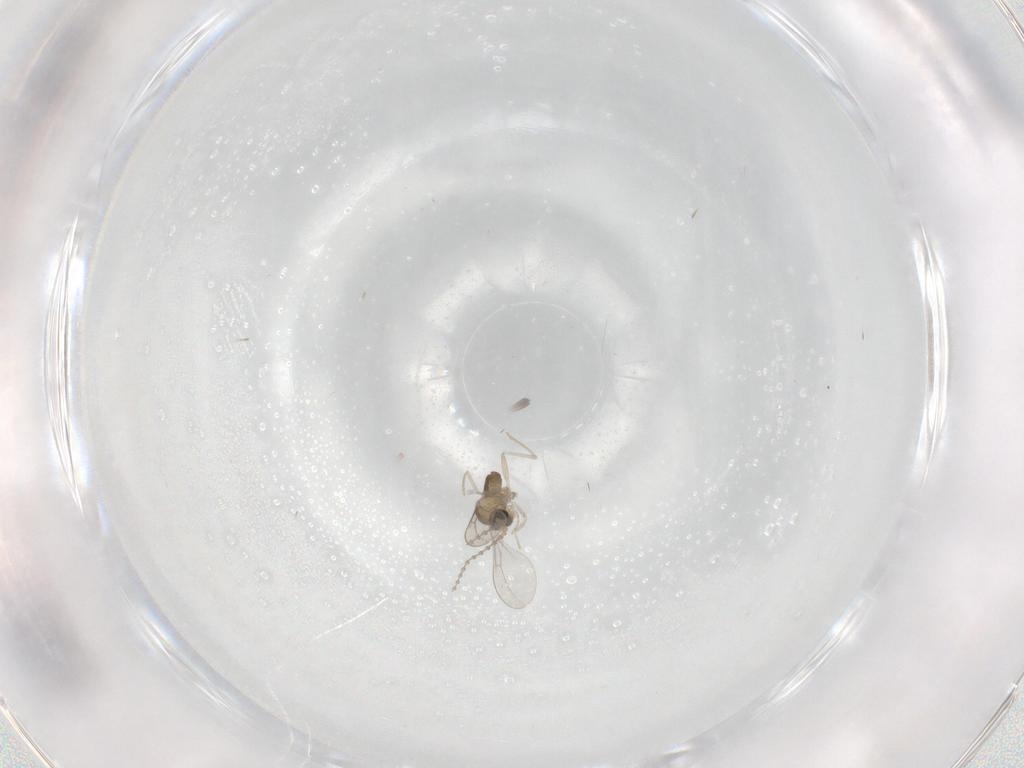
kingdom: Animalia
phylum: Arthropoda
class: Insecta
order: Diptera
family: Cecidomyiidae
